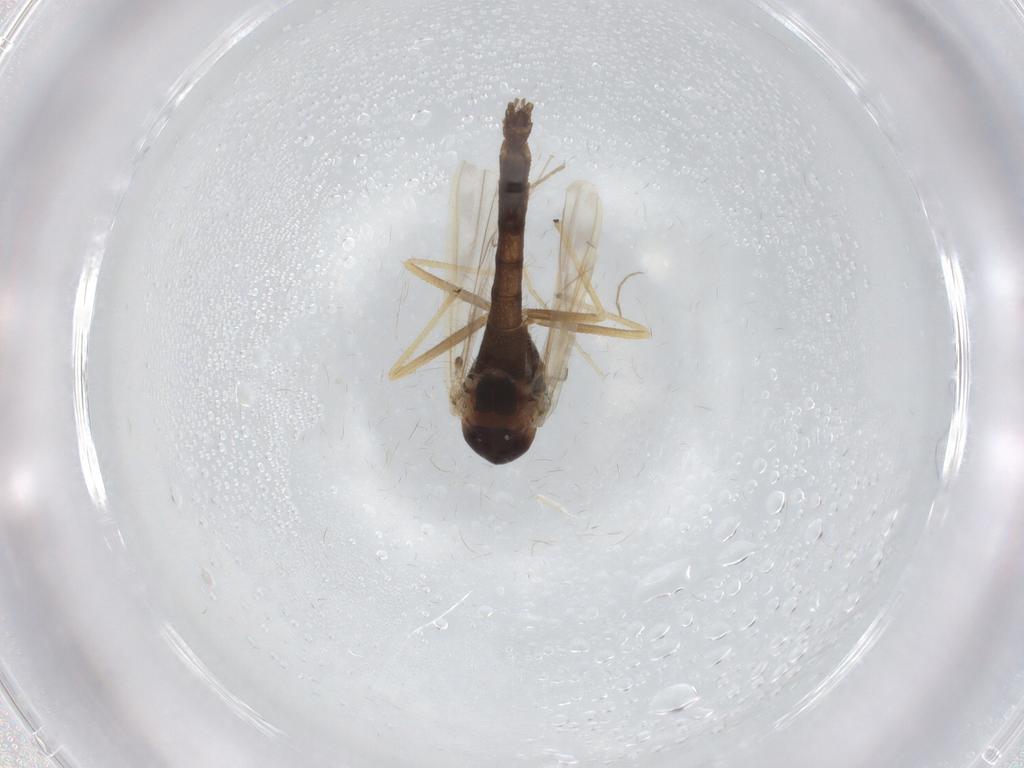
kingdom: Animalia
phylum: Arthropoda
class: Insecta
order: Diptera
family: Chironomidae
